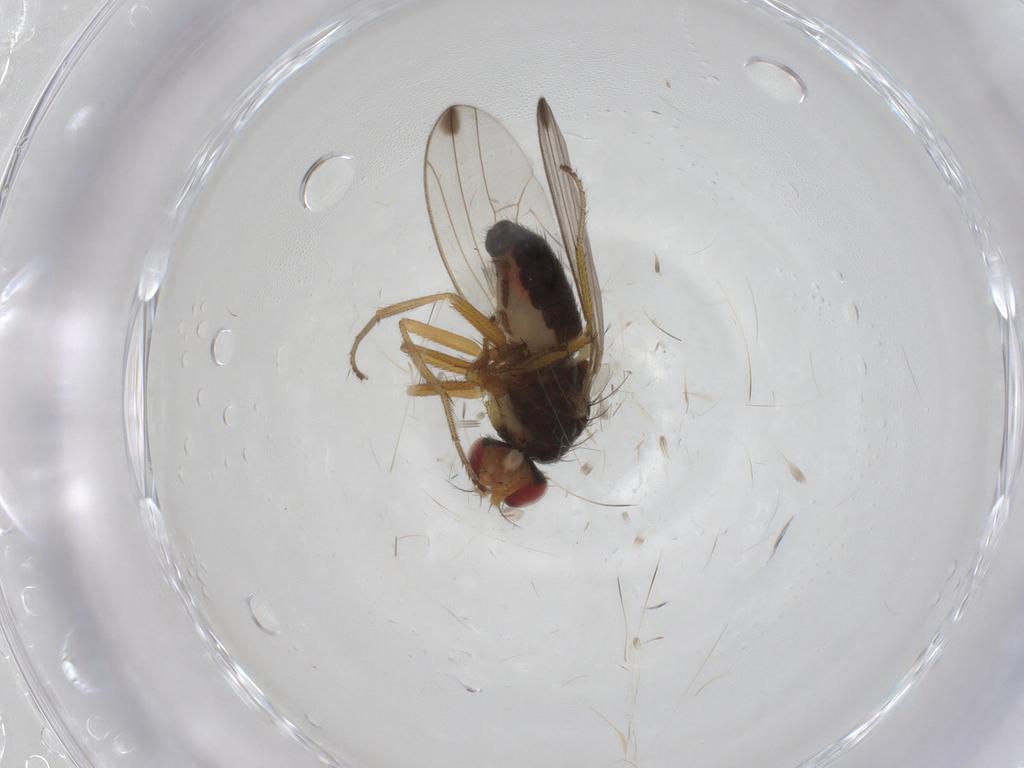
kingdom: Animalia
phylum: Arthropoda
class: Insecta
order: Diptera
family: Drosophilidae
